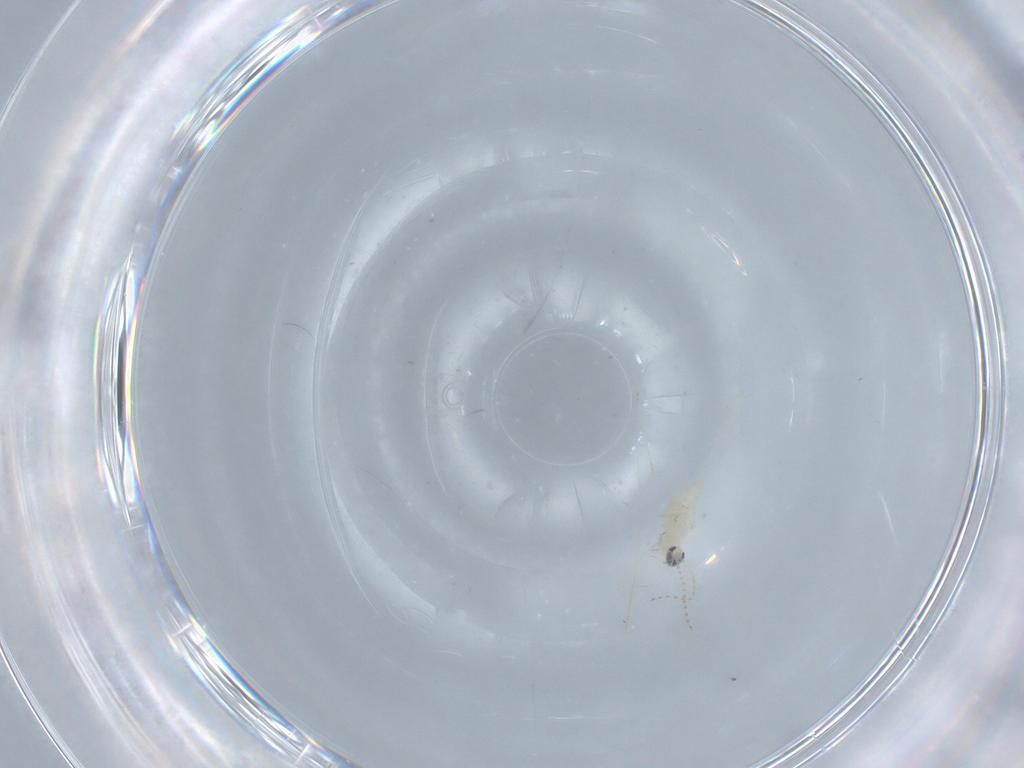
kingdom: Animalia
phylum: Arthropoda
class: Insecta
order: Diptera
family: Cecidomyiidae
